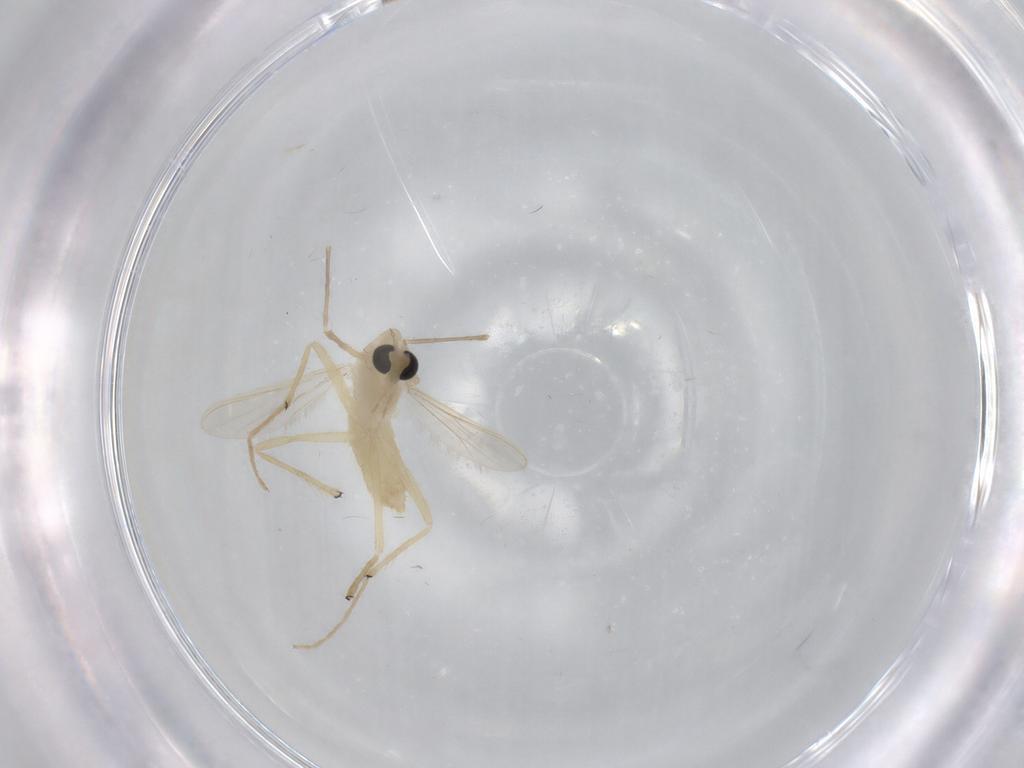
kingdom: Animalia
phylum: Arthropoda
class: Insecta
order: Diptera
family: Chironomidae
